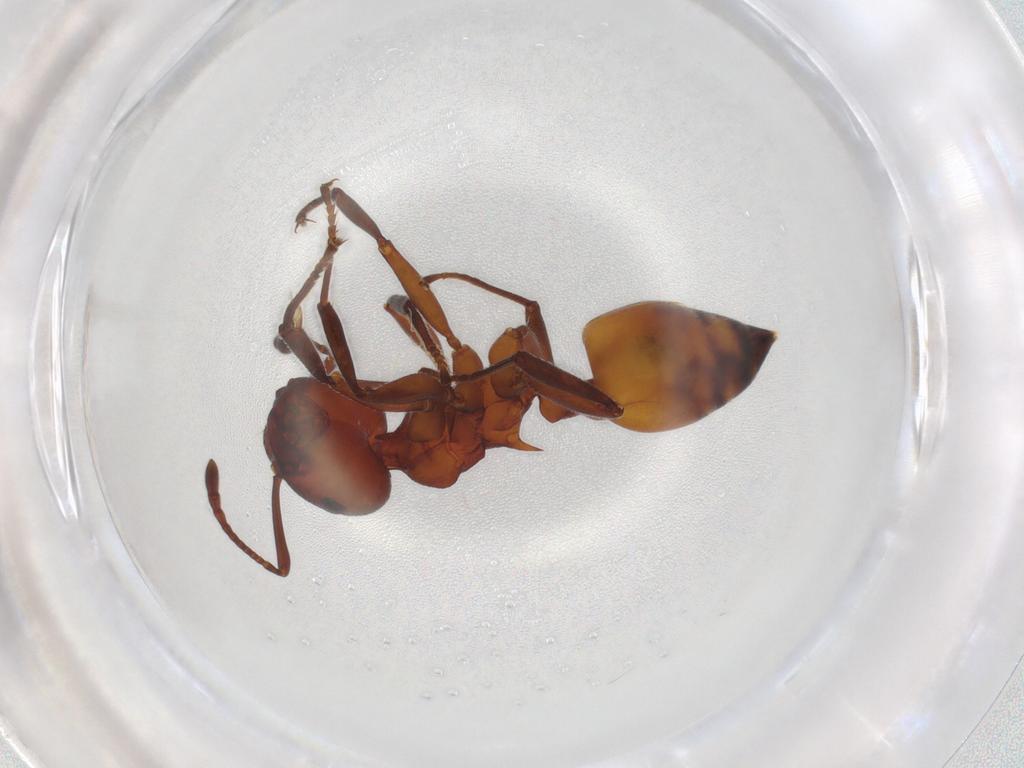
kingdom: Animalia
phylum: Arthropoda
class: Insecta
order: Hymenoptera
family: Formicidae
